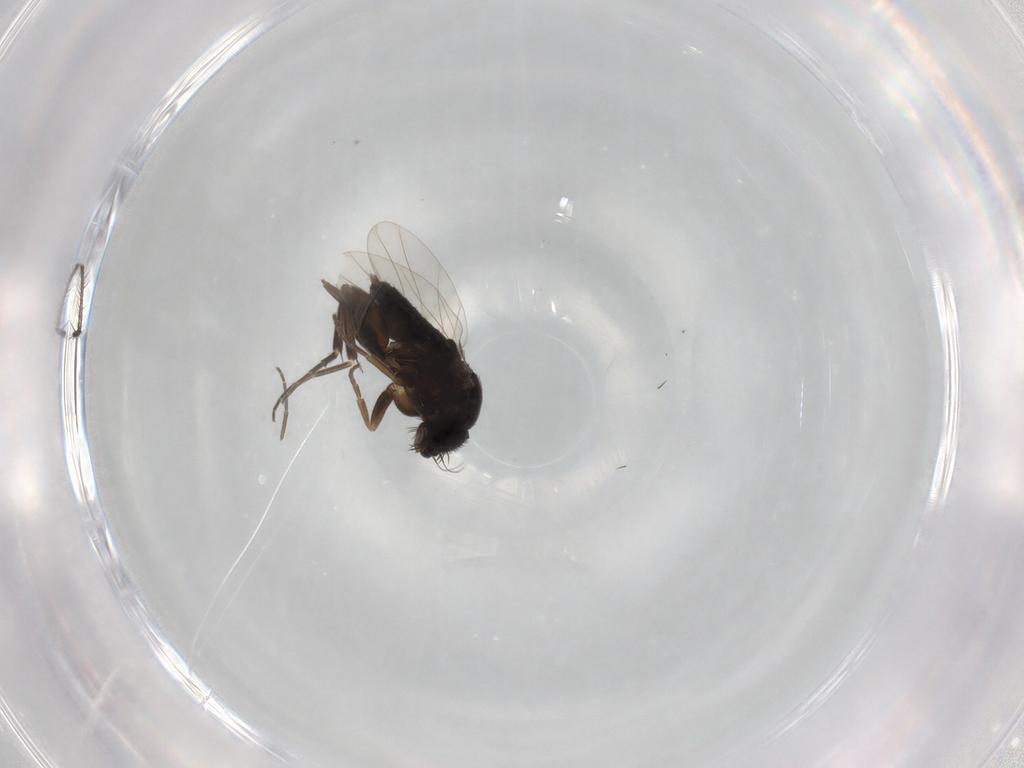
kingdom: Animalia
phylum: Arthropoda
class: Insecta
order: Diptera
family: Phoridae
